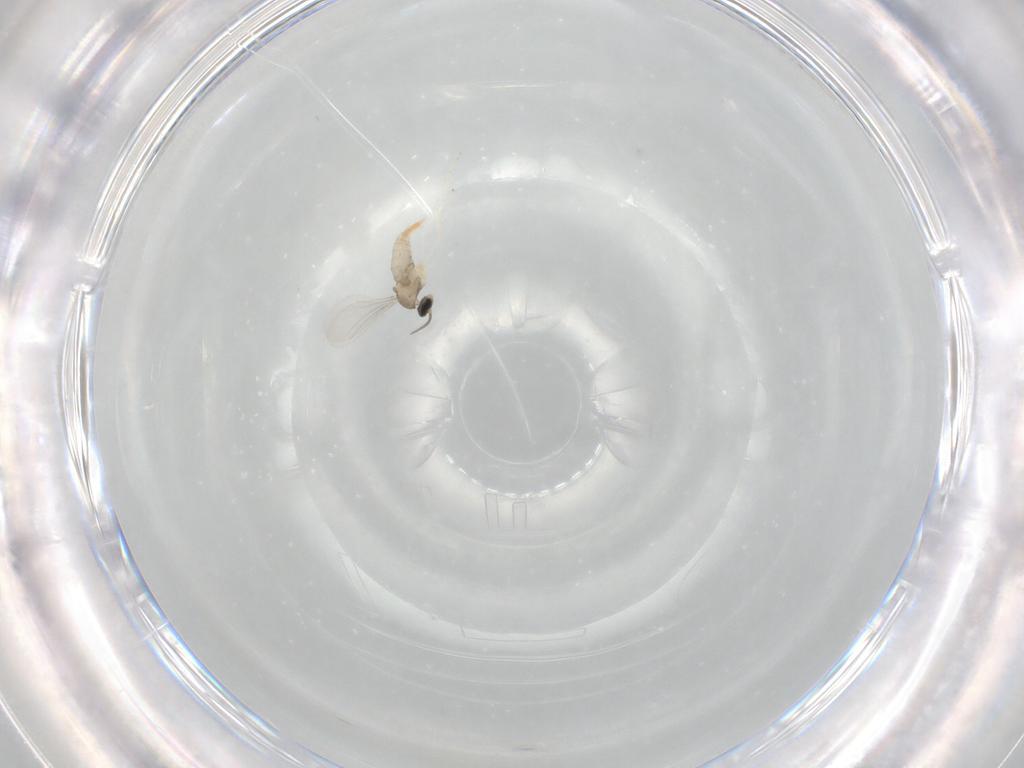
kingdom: Animalia
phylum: Arthropoda
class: Insecta
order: Diptera
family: Cecidomyiidae
